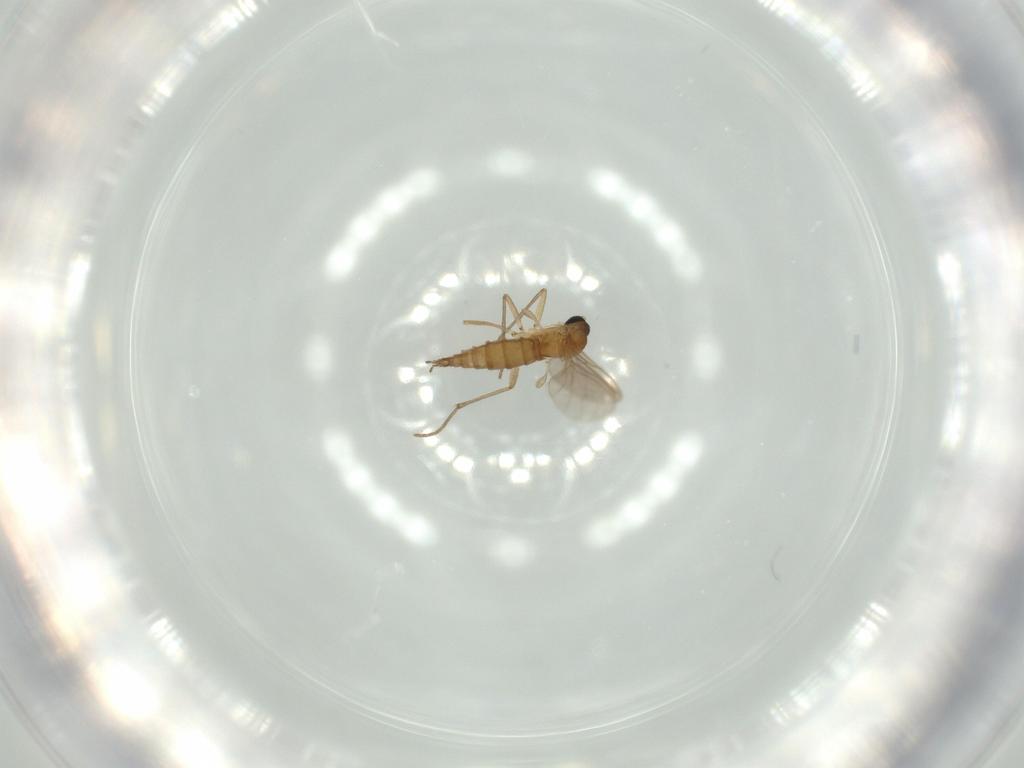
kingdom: Animalia
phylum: Arthropoda
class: Insecta
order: Diptera
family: Sciaridae
